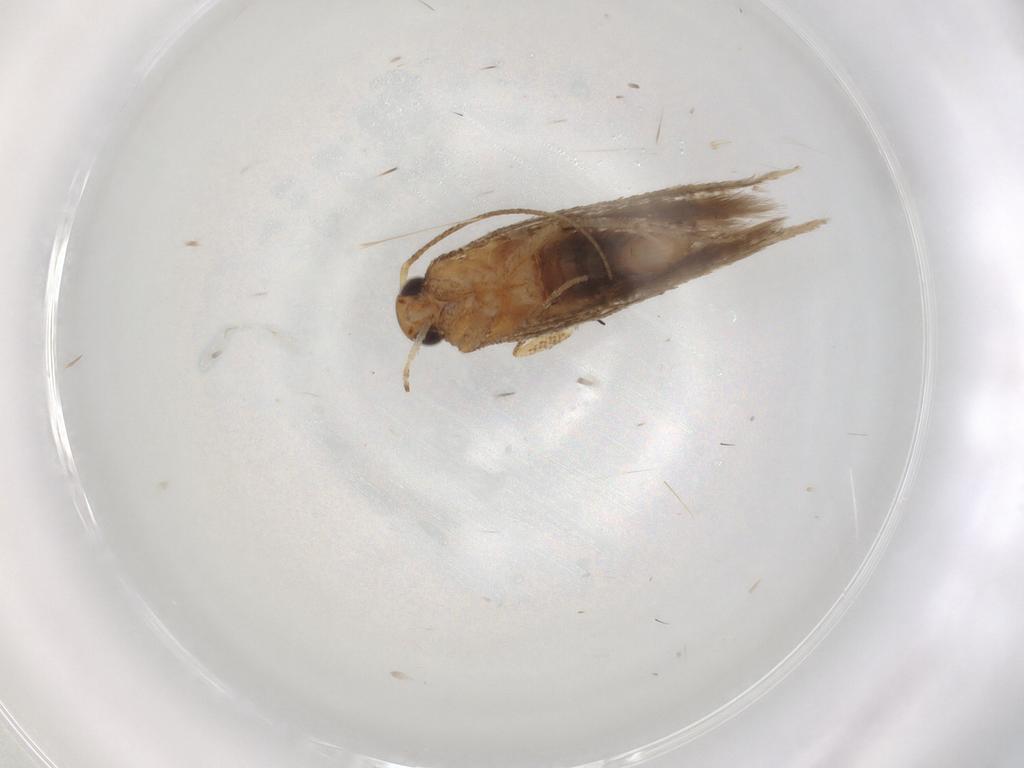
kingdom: Animalia
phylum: Arthropoda
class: Insecta
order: Lepidoptera
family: Gelechiidae
